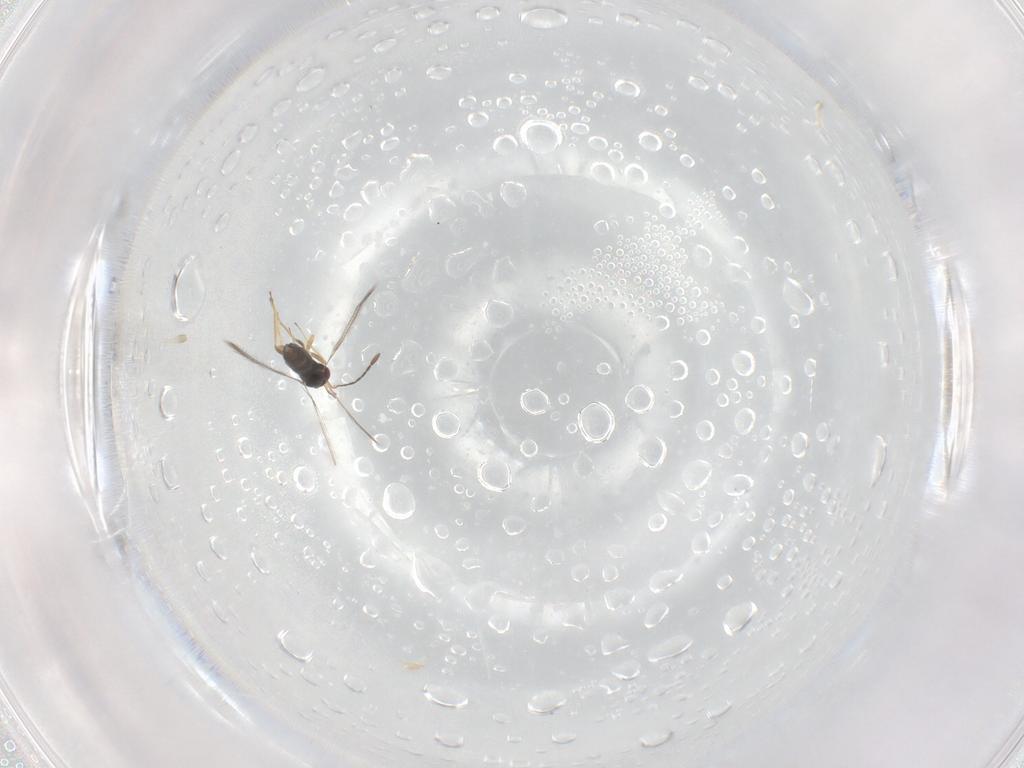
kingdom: Animalia
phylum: Arthropoda
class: Insecta
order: Hymenoptera
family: Mymaridae
